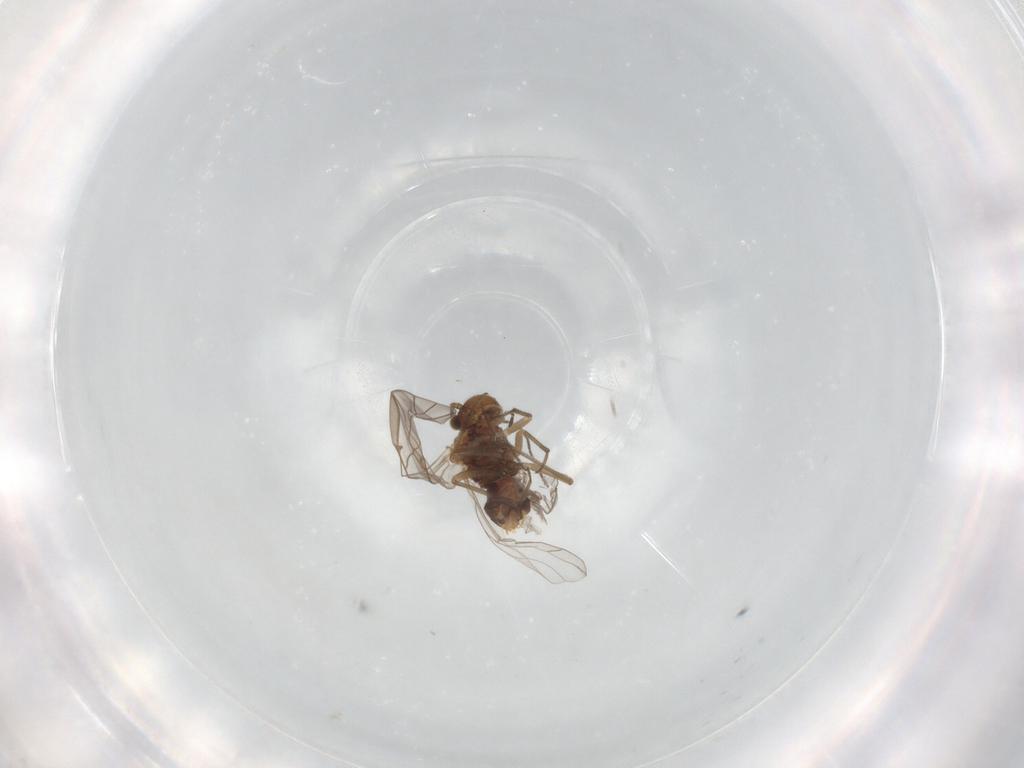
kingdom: Animalia
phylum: Arthropoda
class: Insecta
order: Psocodea
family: Lachesillidae
